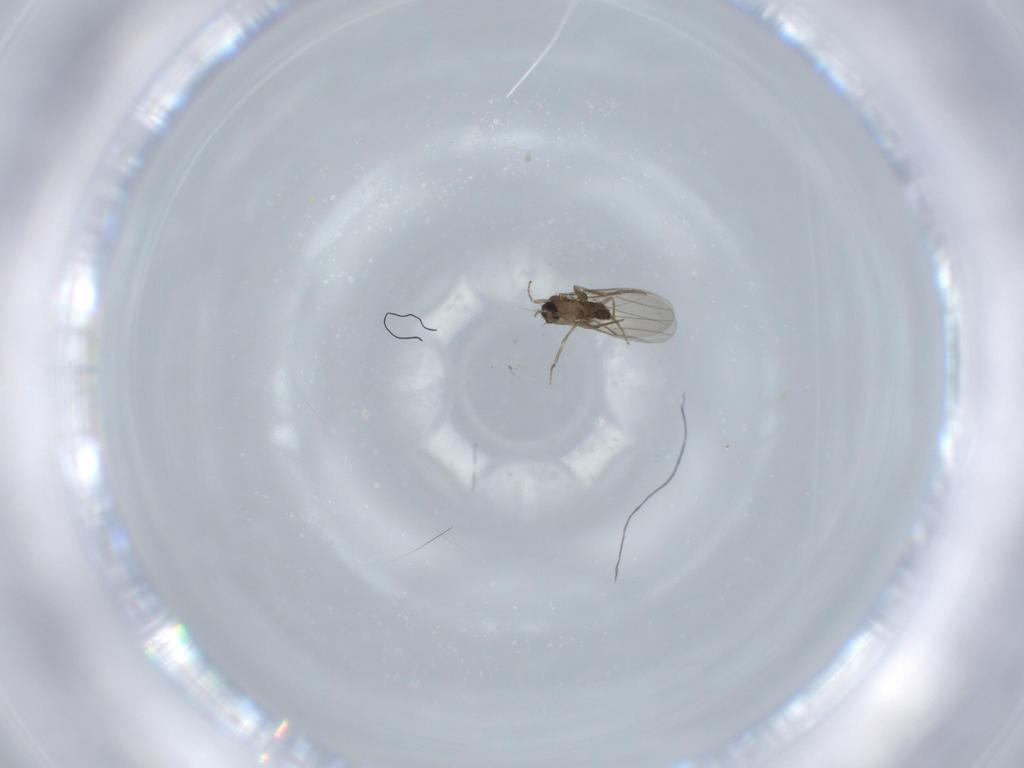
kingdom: Animalia
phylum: Arthropoda
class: Insecta
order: Diptera
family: Phoridae
